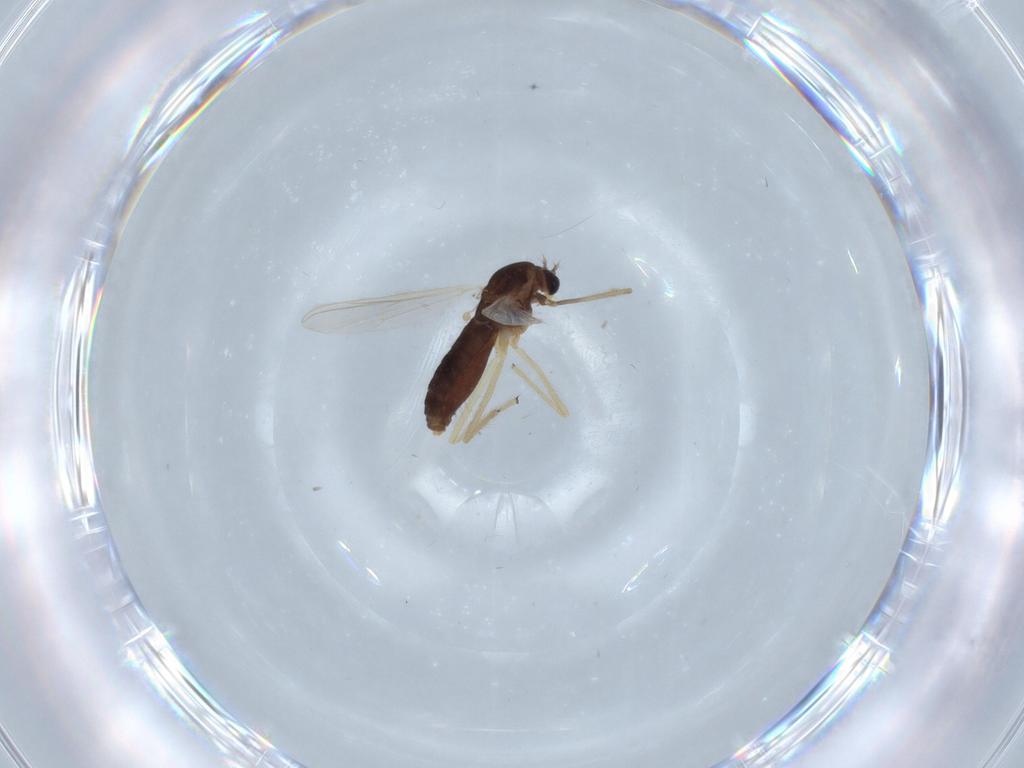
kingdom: Animalia
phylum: Arthropoda
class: Insecta
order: Diptera
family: Chironomidae
